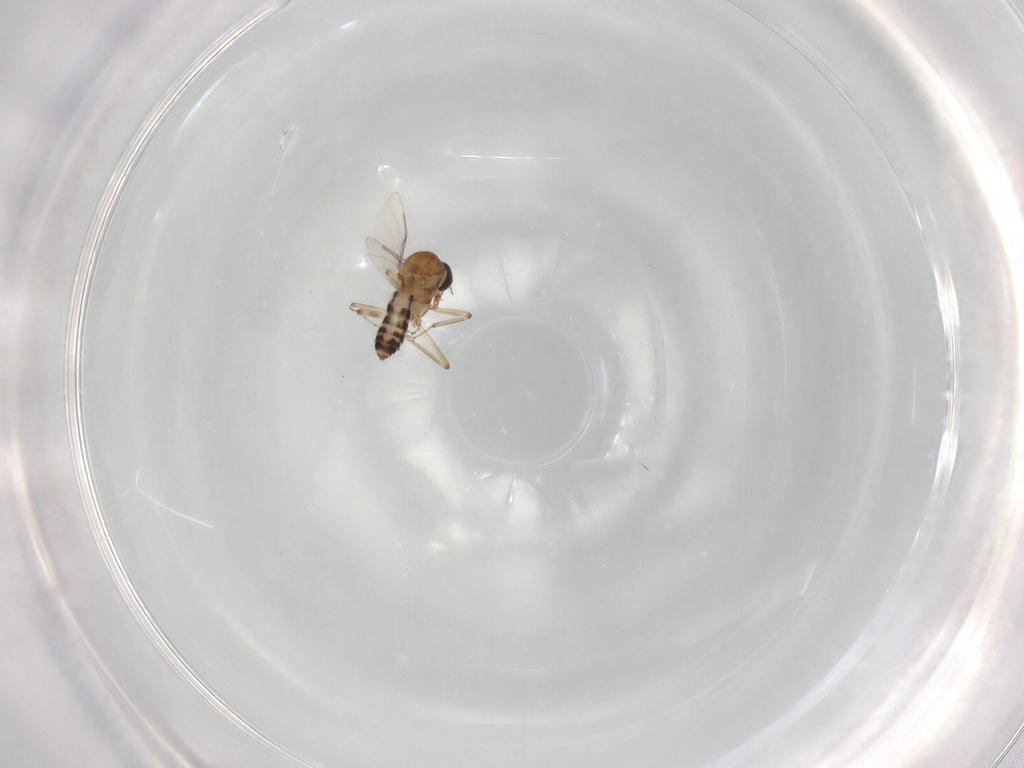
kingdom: Animalia
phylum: Arthropoda
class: Insecta
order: Diptera
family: Ceratopogonidae
